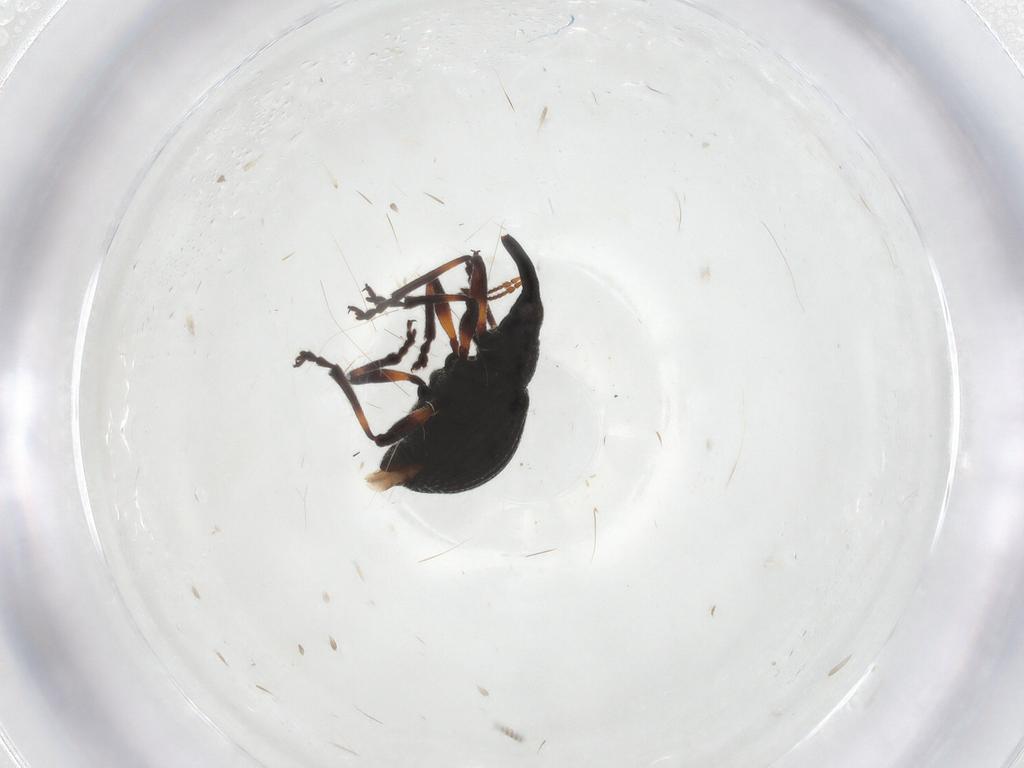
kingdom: Animalia
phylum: Arthropoda
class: Insecta
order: Coleoptera
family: Brentidae
